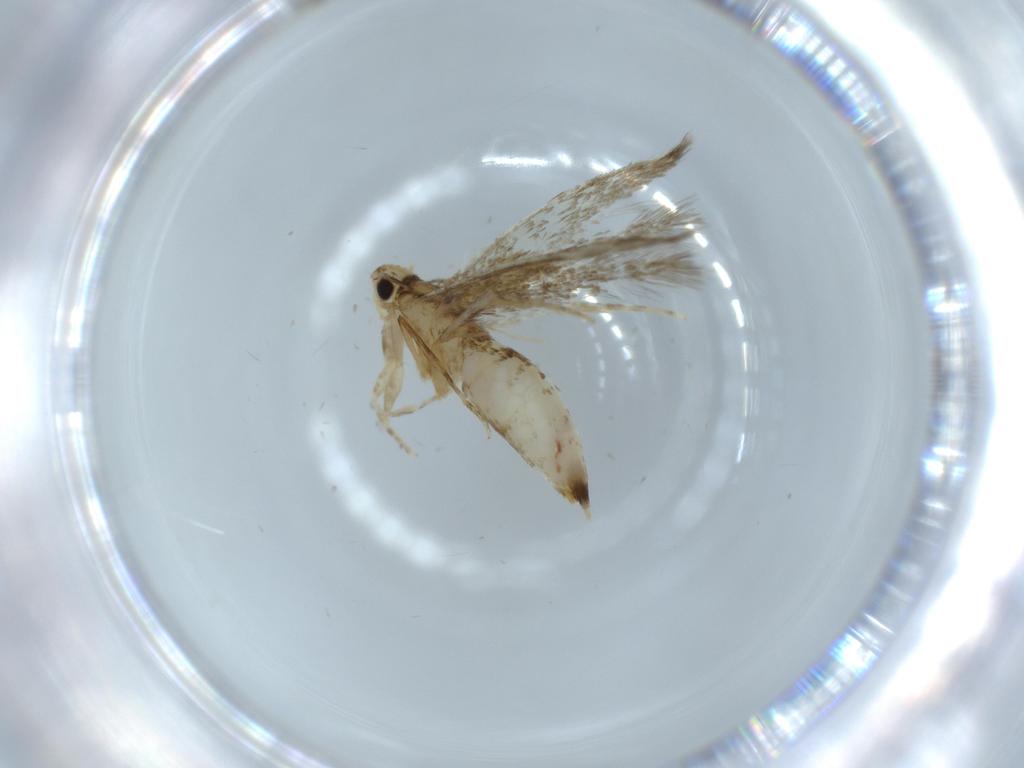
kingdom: Animalia
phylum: Arthropoda
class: Insecta
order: Lepidoptera
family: Tineidae
